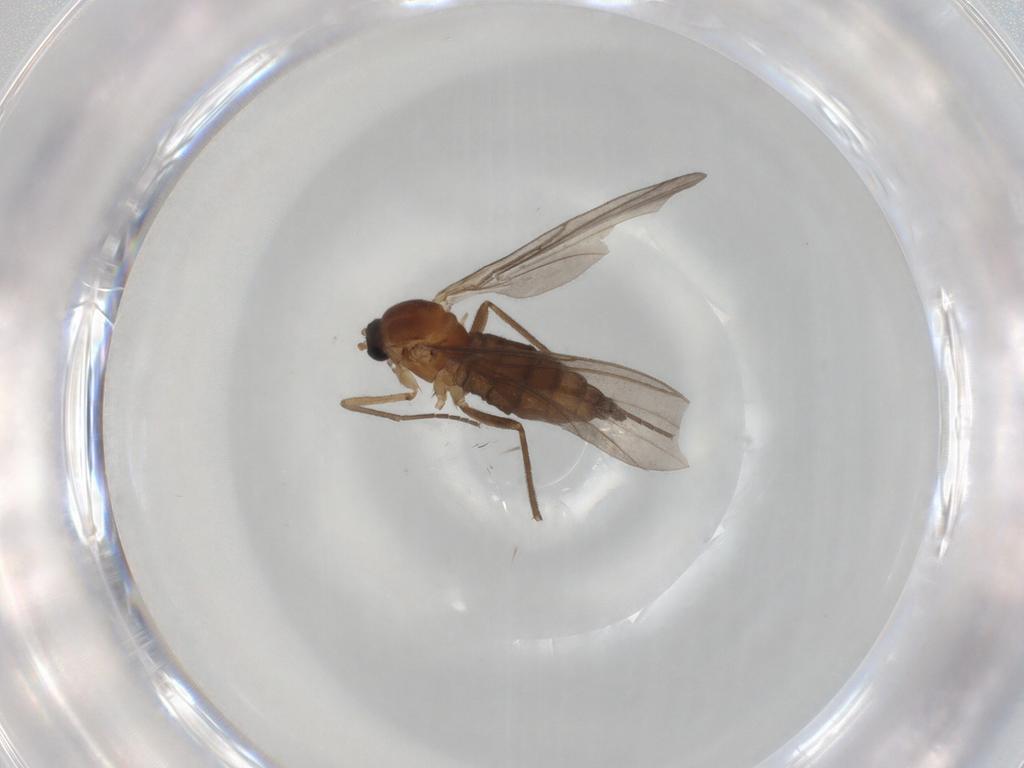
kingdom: Animalia
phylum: Arthropoda
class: Insecta
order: Diptera
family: Sciaridae
